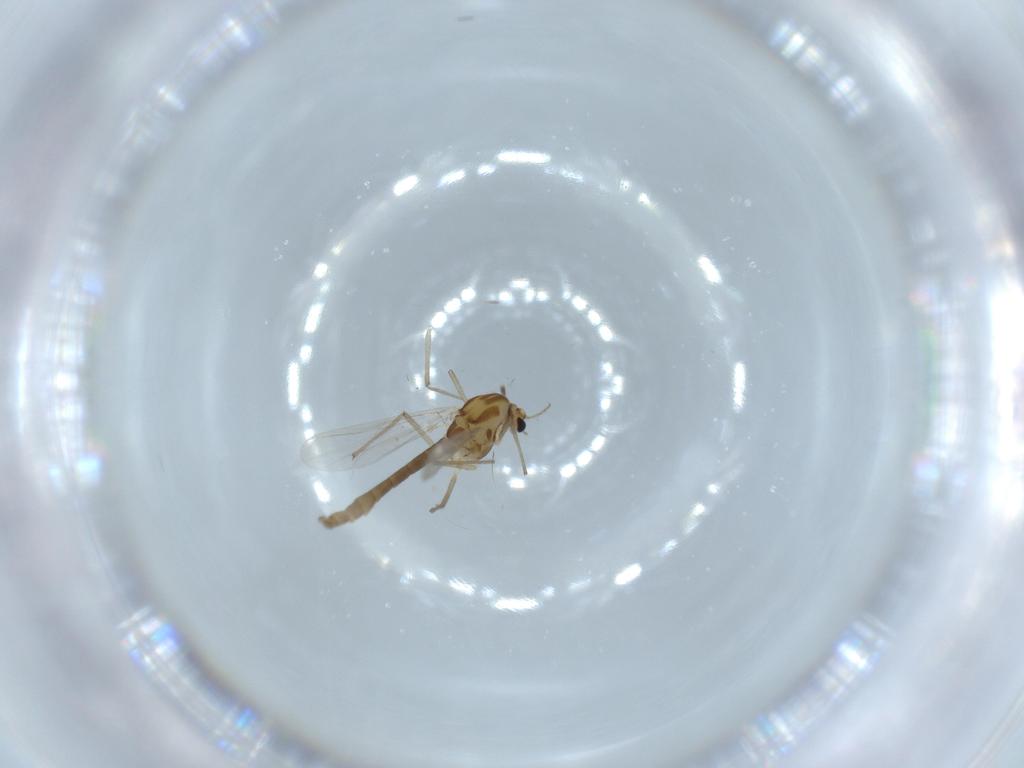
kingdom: Animalia
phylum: Arthropoda
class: Insecta
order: Diptera
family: Chironomidae
